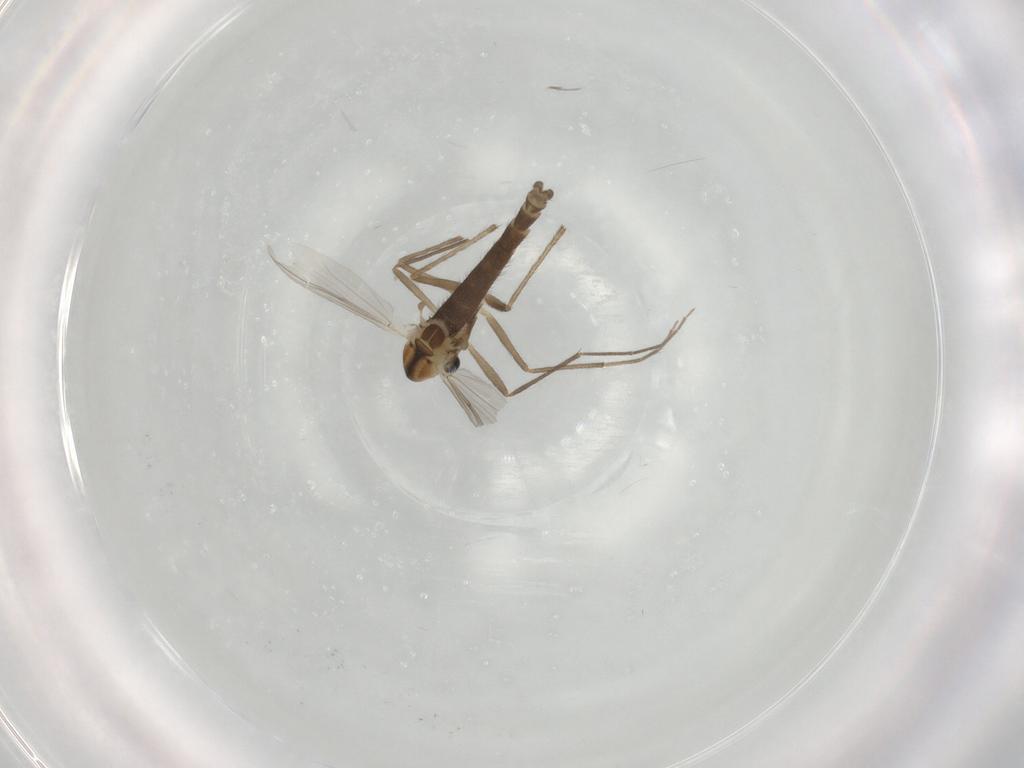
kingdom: Animalia
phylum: Arthropoda
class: Insecta
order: Diptera
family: Chironomidae
